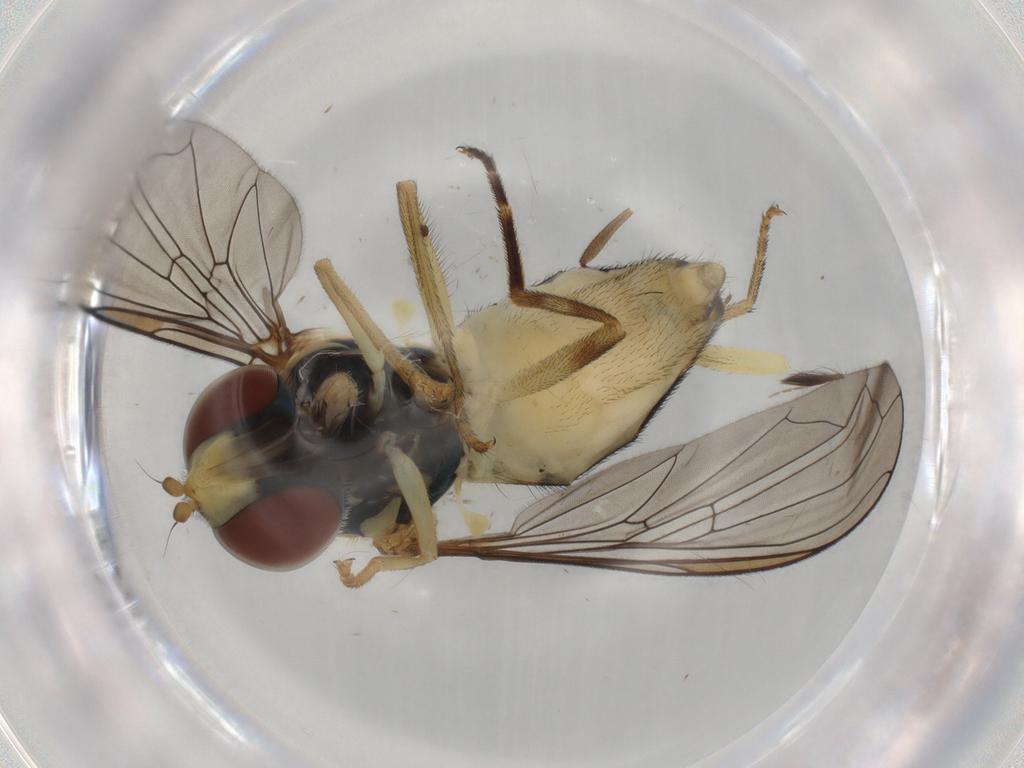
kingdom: Animalia
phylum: Arthropoda
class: Insecta
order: Diptera
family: Syrphidae
